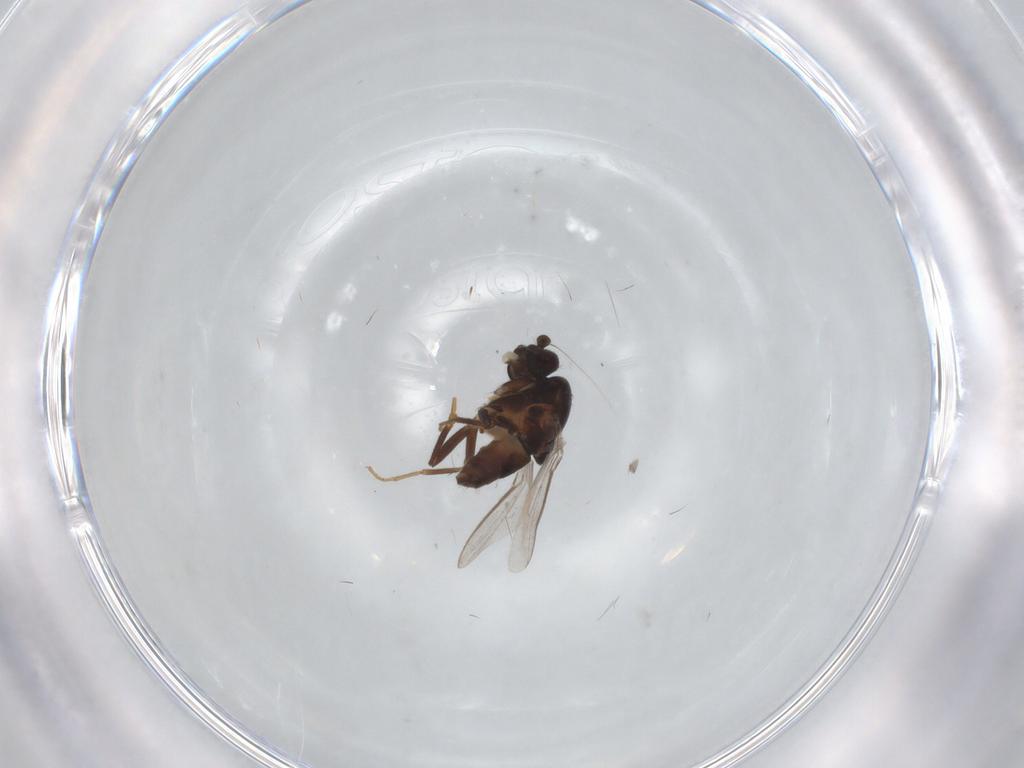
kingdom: Animalia
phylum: Arthropoda
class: Insecta
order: Diptera
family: Sphaeroceridae
